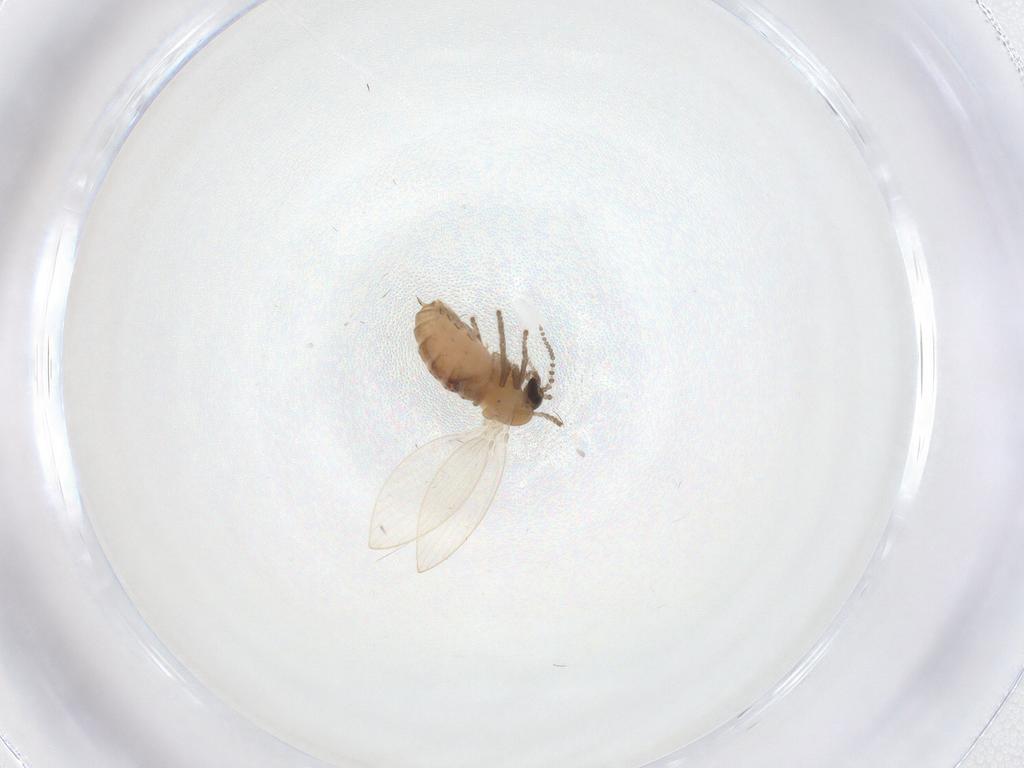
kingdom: Animalia
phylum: Arthropoda
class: Insecta
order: Diptera
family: Psychodidae
